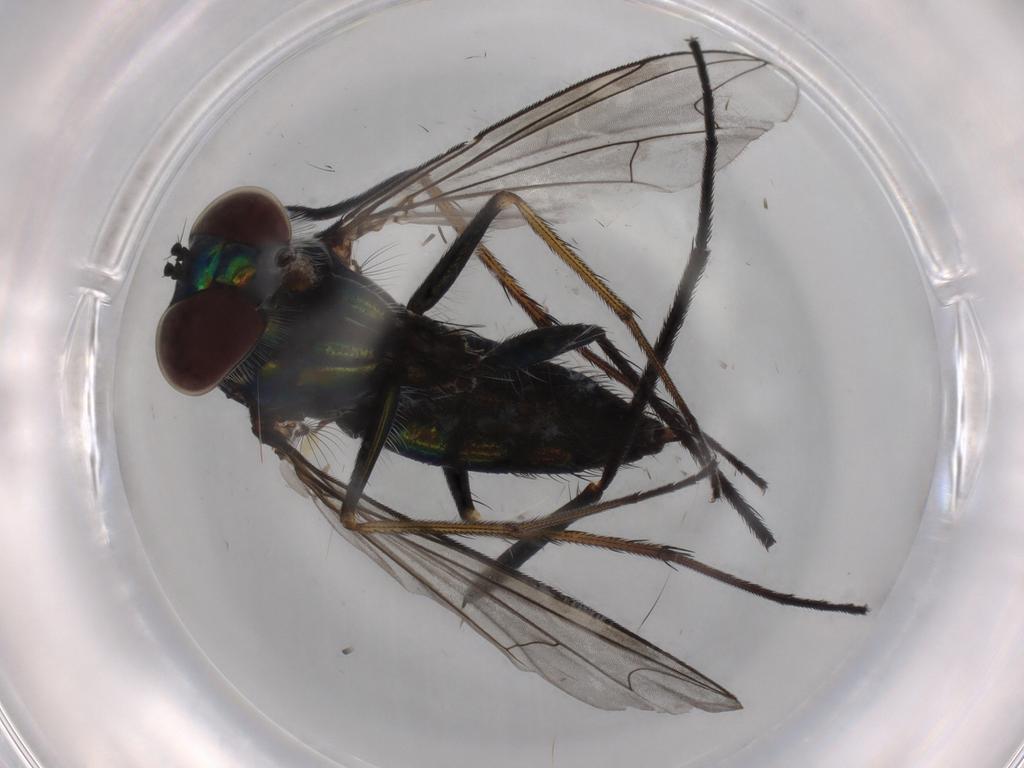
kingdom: Animalia
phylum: Arthropoda
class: Insecta
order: Diptera
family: Dolichopodidae
